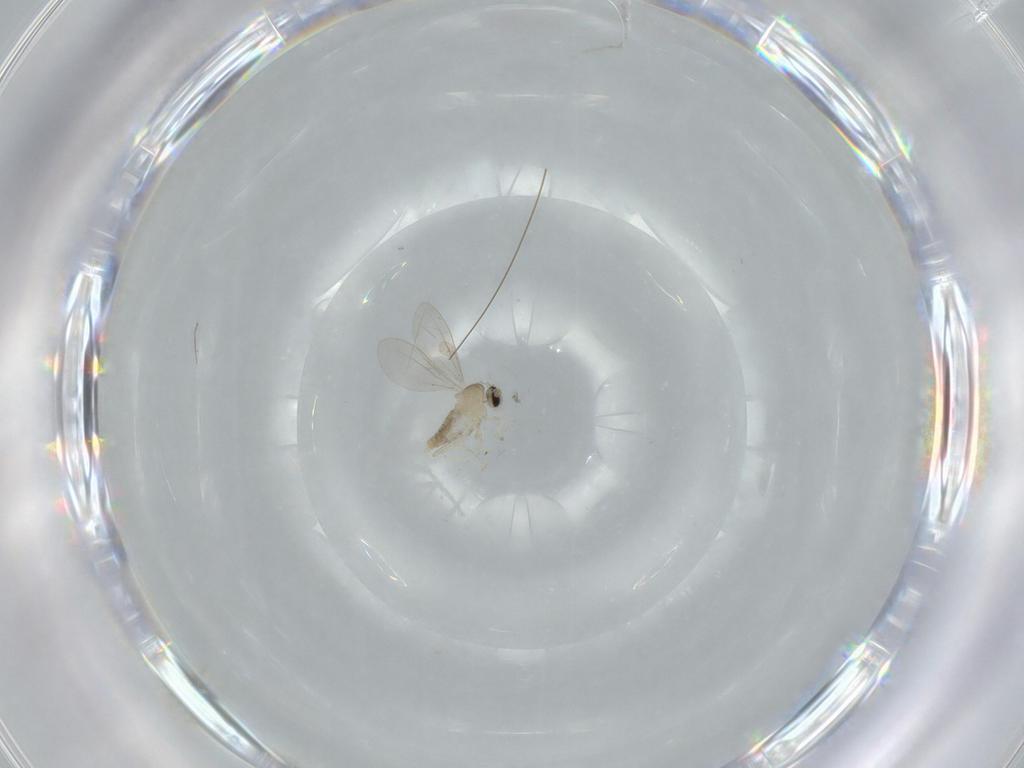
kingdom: Animalia
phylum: Arthropoda
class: Insecta
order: Diptera
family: Cecidomyiidae
